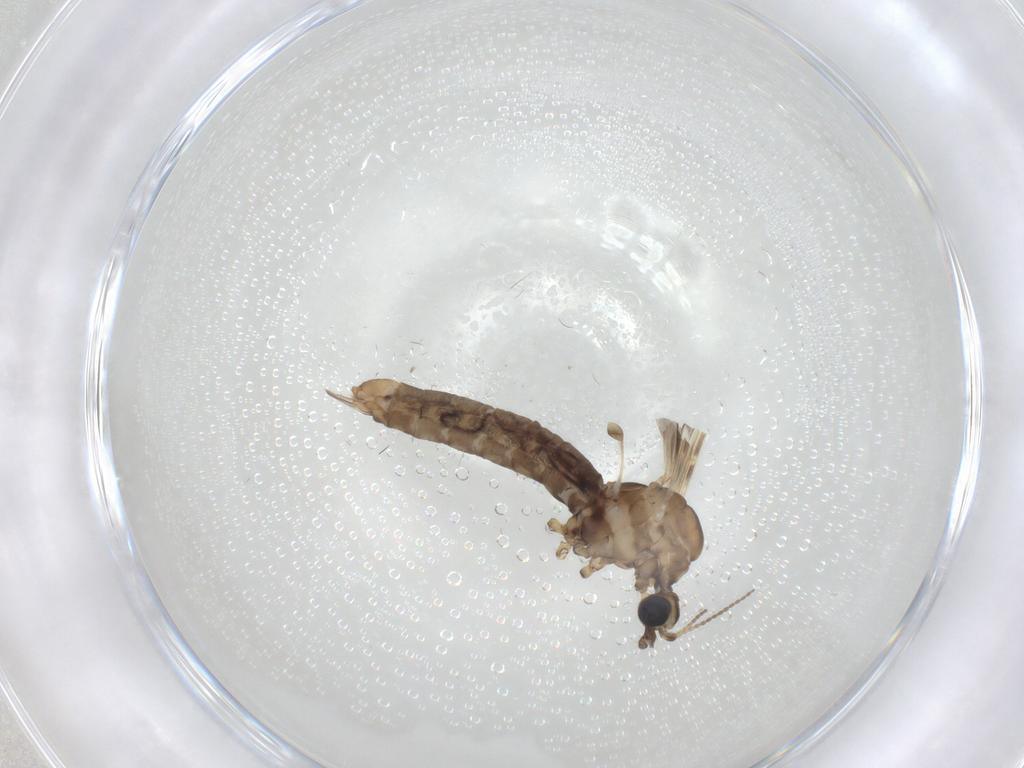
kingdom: Animalia
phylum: Arthropoda
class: Insecta
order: Diptera
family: Limoniidae
